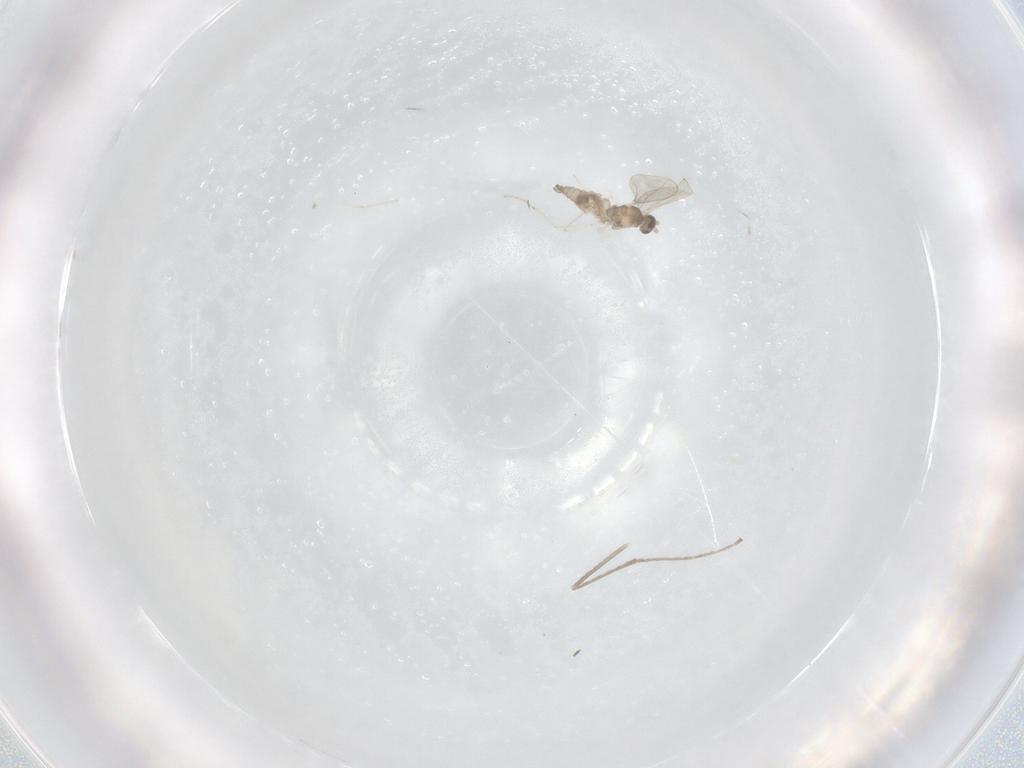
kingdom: Animalia
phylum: Arthropoda
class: Insecta
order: Diptera
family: Cecidomyiidae
